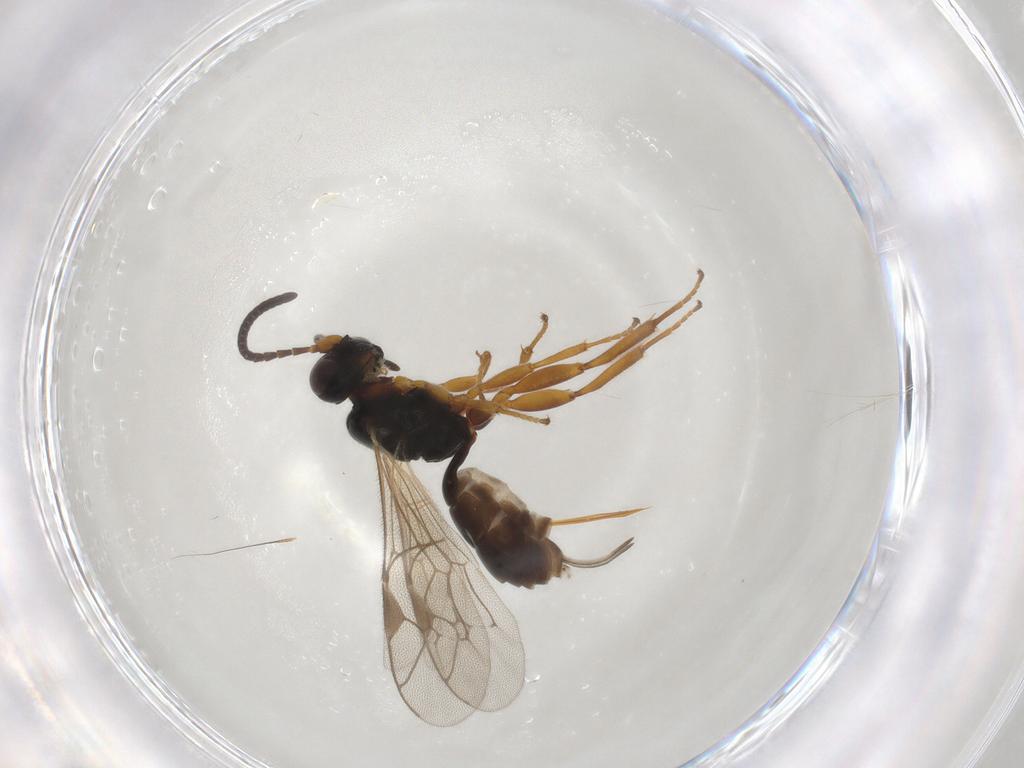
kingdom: Animalia
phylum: Arthropoda
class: Insecta
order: Hymenoptera
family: Ichneumonidae
